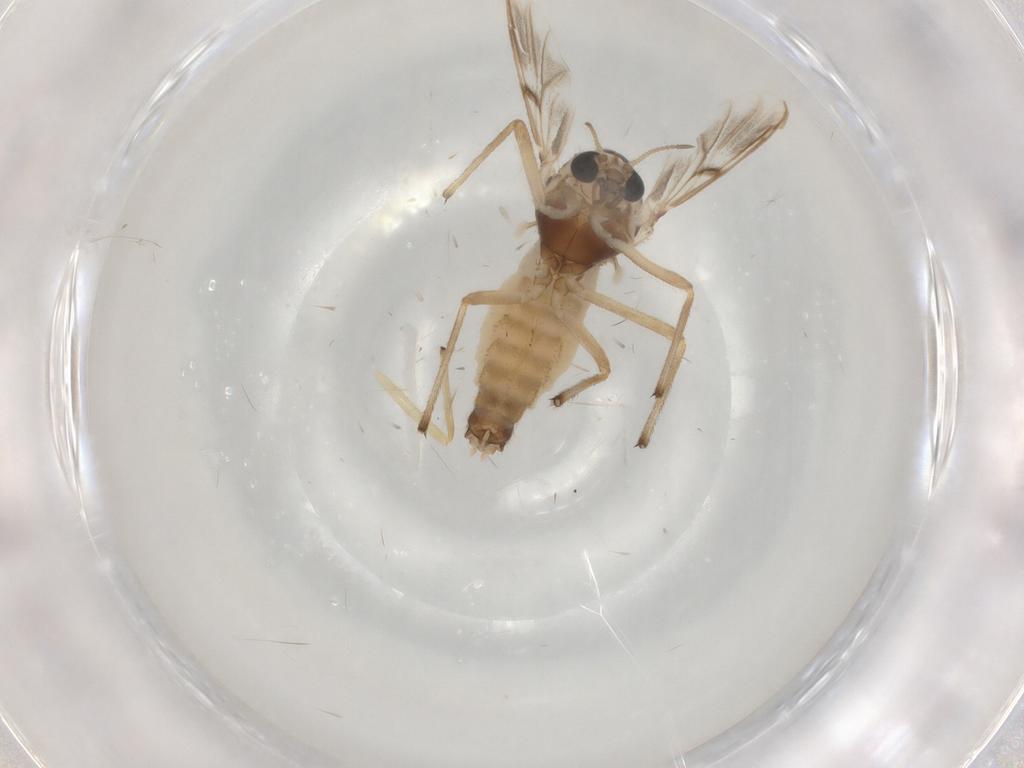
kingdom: Animalia
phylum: Arthropoda
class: Insecta
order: Diptera
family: Chironomidae
